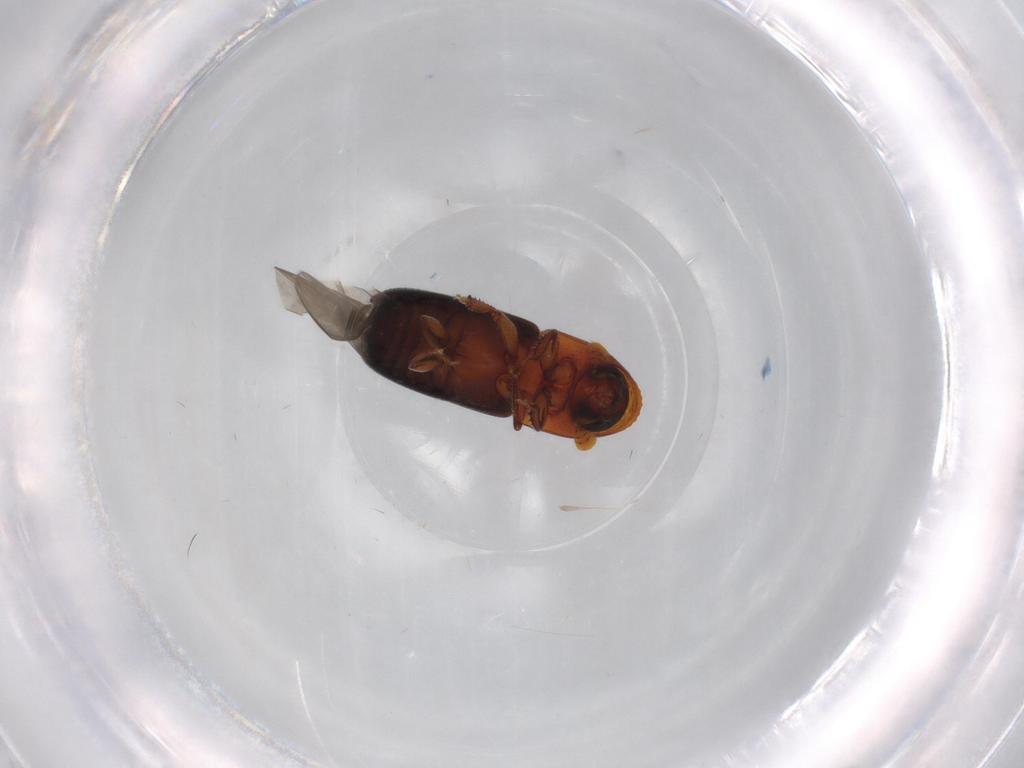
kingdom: Animalia
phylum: Arthropoda
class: Insecta
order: Coleoptera
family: Curculionidae
